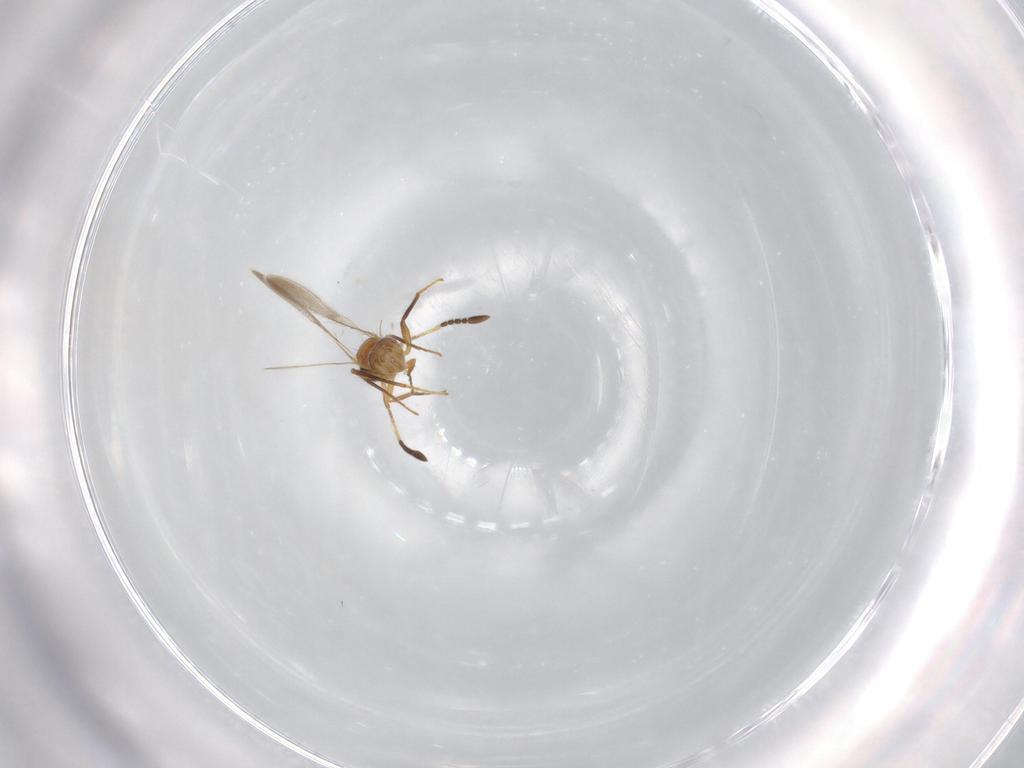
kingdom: Animalia
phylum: Arthropoda
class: Insecta
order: Hymenoptera
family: Mymaridae
